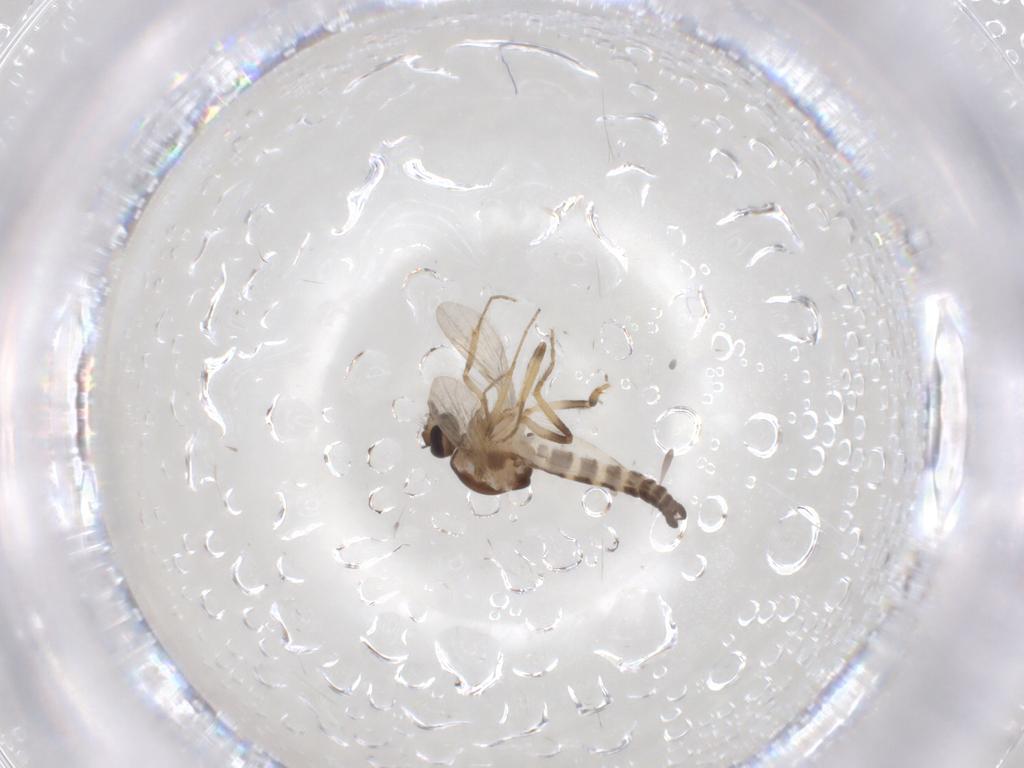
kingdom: Animalia
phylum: Arthropoda
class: Insecta
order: Diptera
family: Ceratopogonidae
